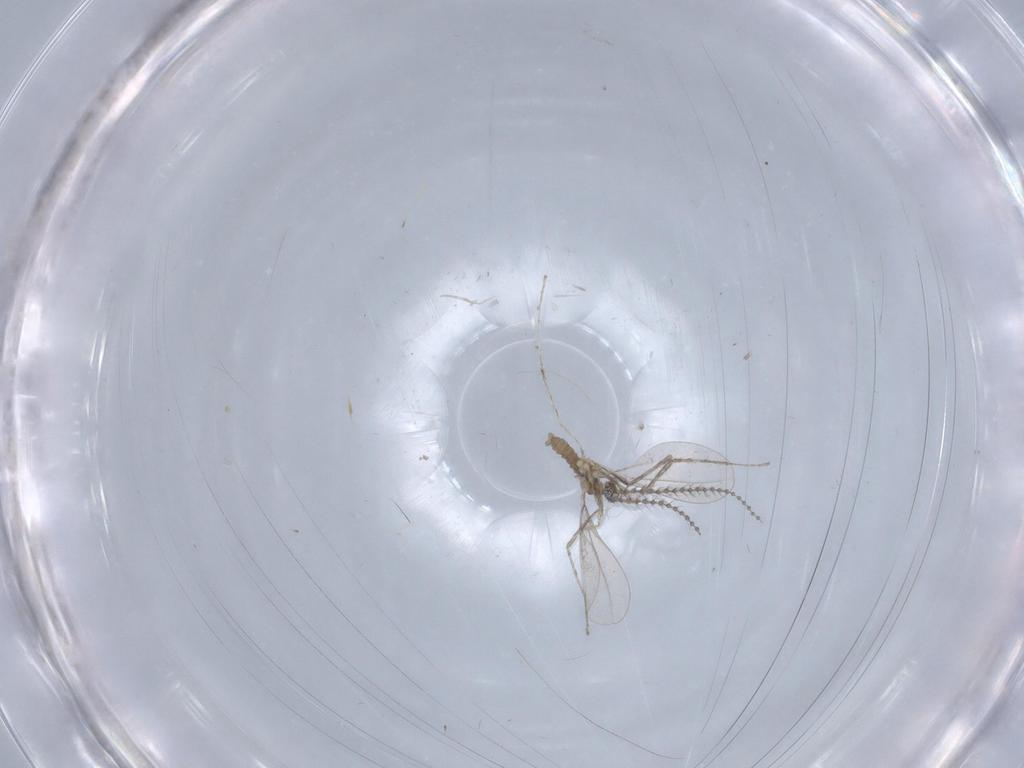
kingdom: Animalia
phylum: Arthropoda
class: Insecta
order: Diptera
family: Cecidomyiidae
